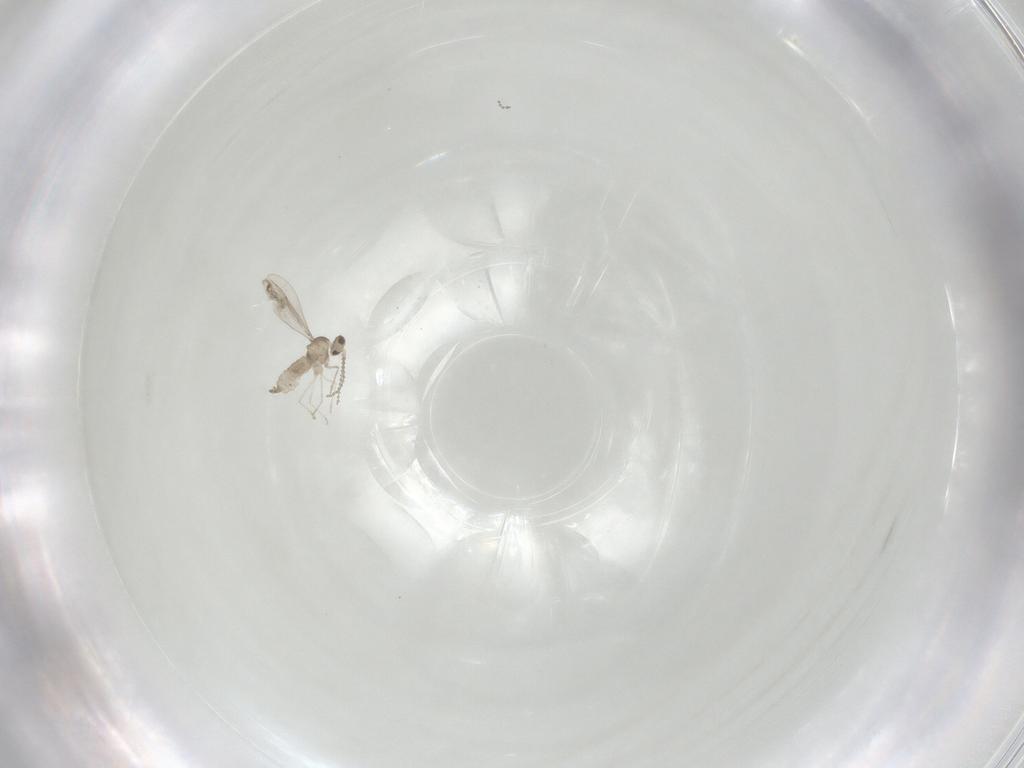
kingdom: Animalia
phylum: Arthropoda
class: Insecta
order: Diptera
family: Cecidomyiidae
